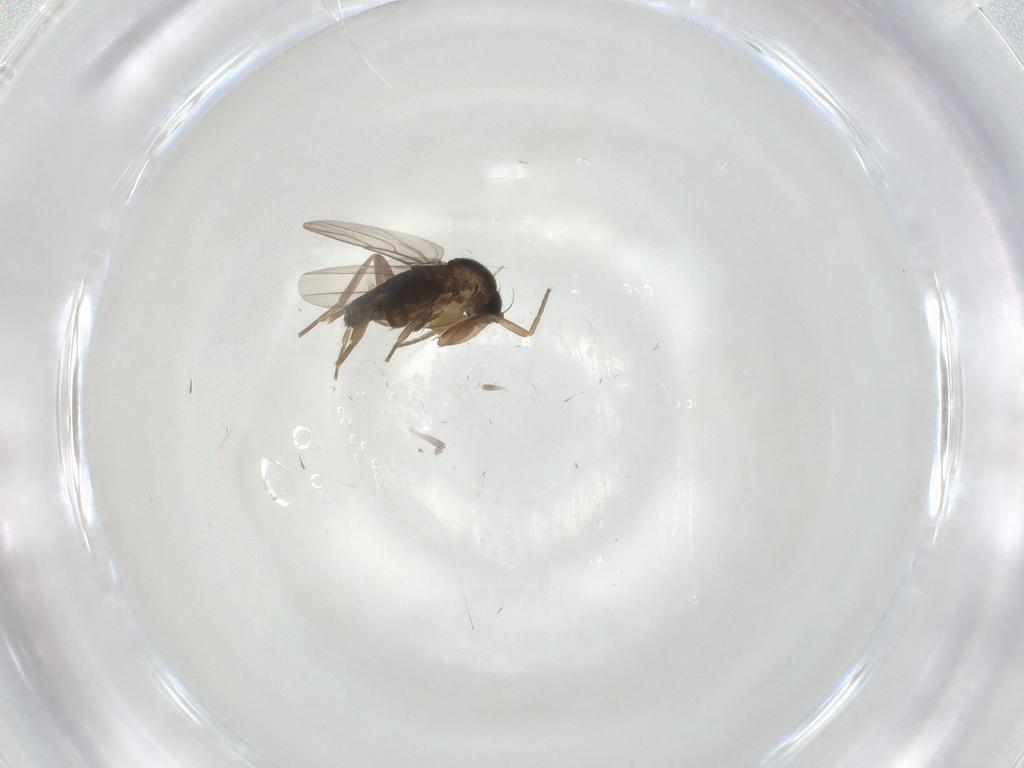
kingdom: Animalia
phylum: Arthropoda
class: Insecta
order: Diptera
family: Phoridae
